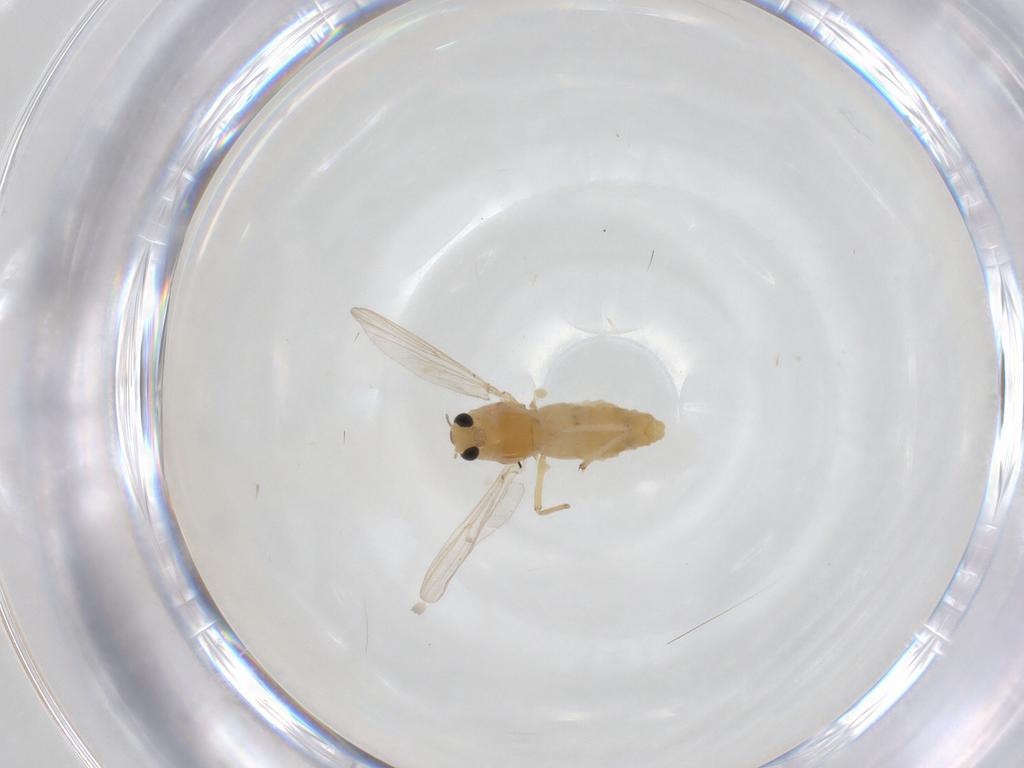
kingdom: Animalia
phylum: Arthropoda
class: Insecta
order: Diptera
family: Chironomidae
